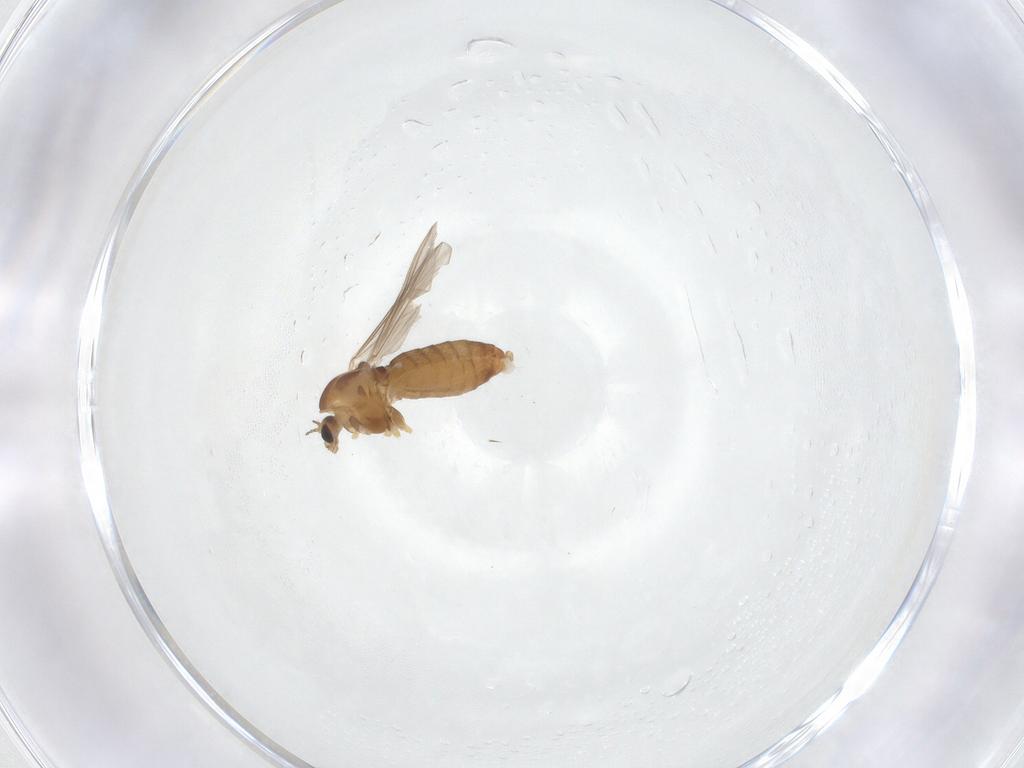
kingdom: Animalia
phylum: Arthropoda
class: Insecta
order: Diptera
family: Chironomidae
